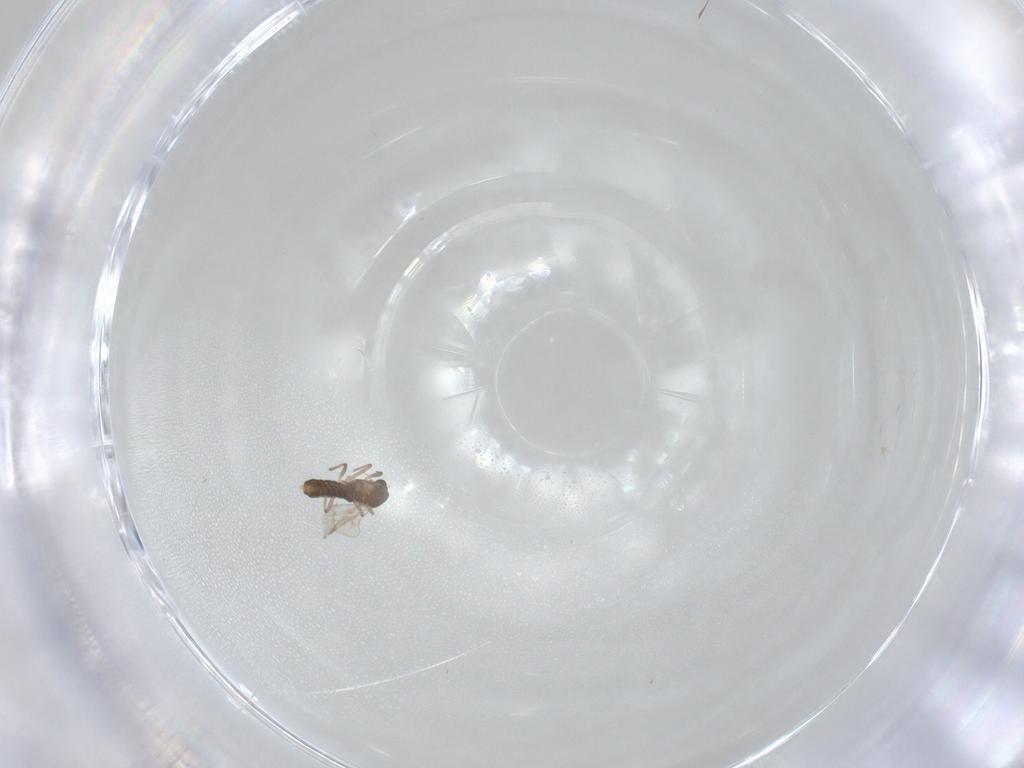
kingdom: Animalia
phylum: Arthropoda
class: Insecta
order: Diptera
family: Chironomidae
